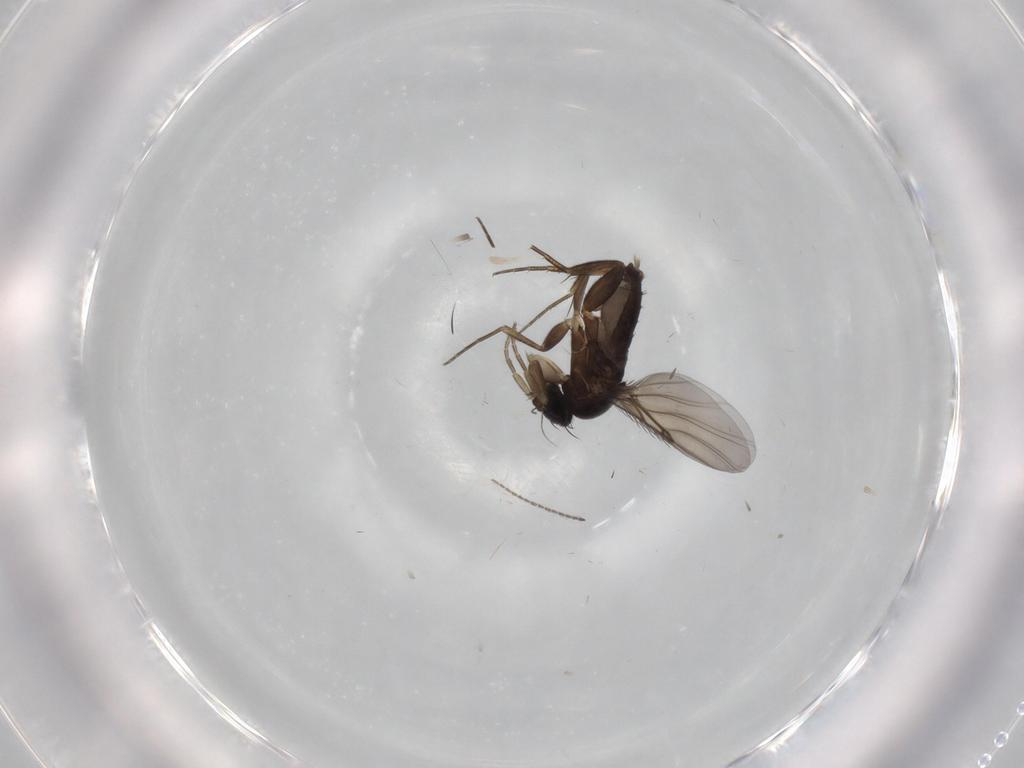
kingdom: Animalia
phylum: Arthropoda
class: Insecta
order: Diptera
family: Phoridae
